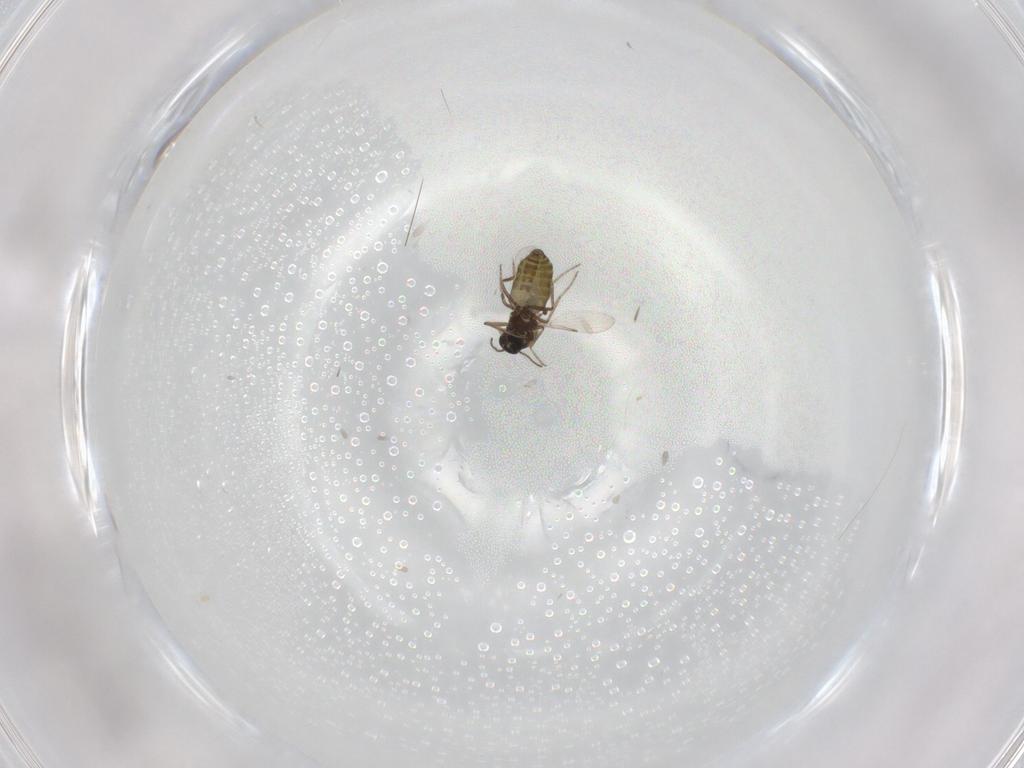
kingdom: Animalia
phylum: Arthropoda
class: Insecta
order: Diptera
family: Ceratopogonidae
